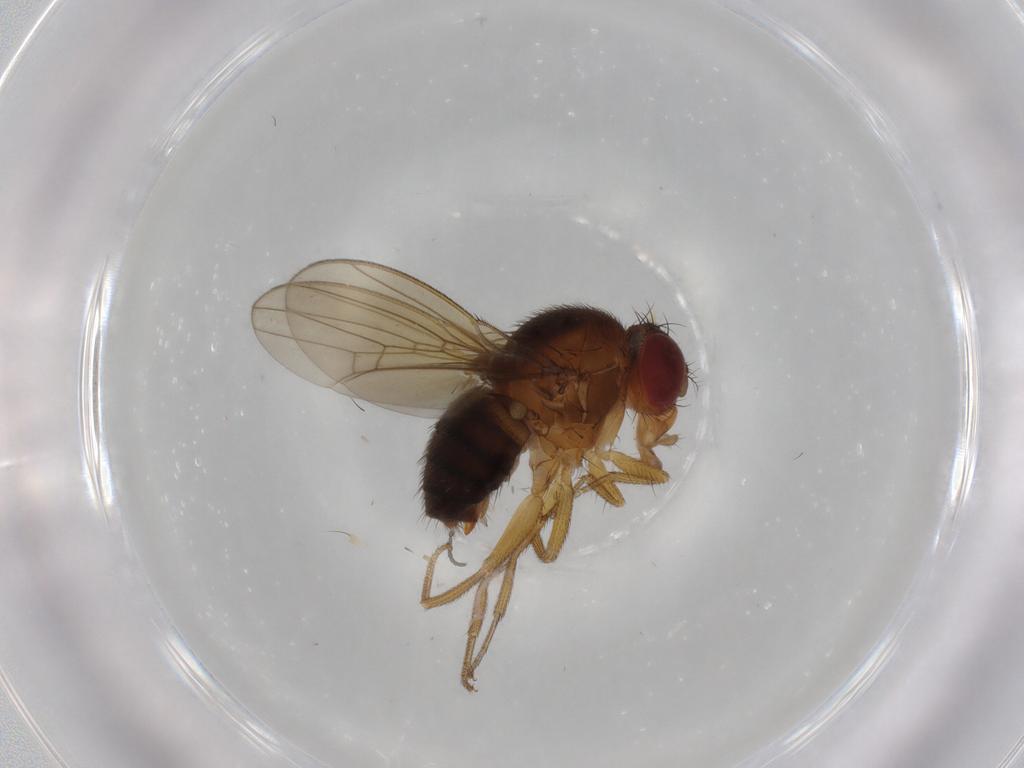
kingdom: Animalia
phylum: Arthropoda
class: Insecta
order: Diptera
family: Drosophilidae
